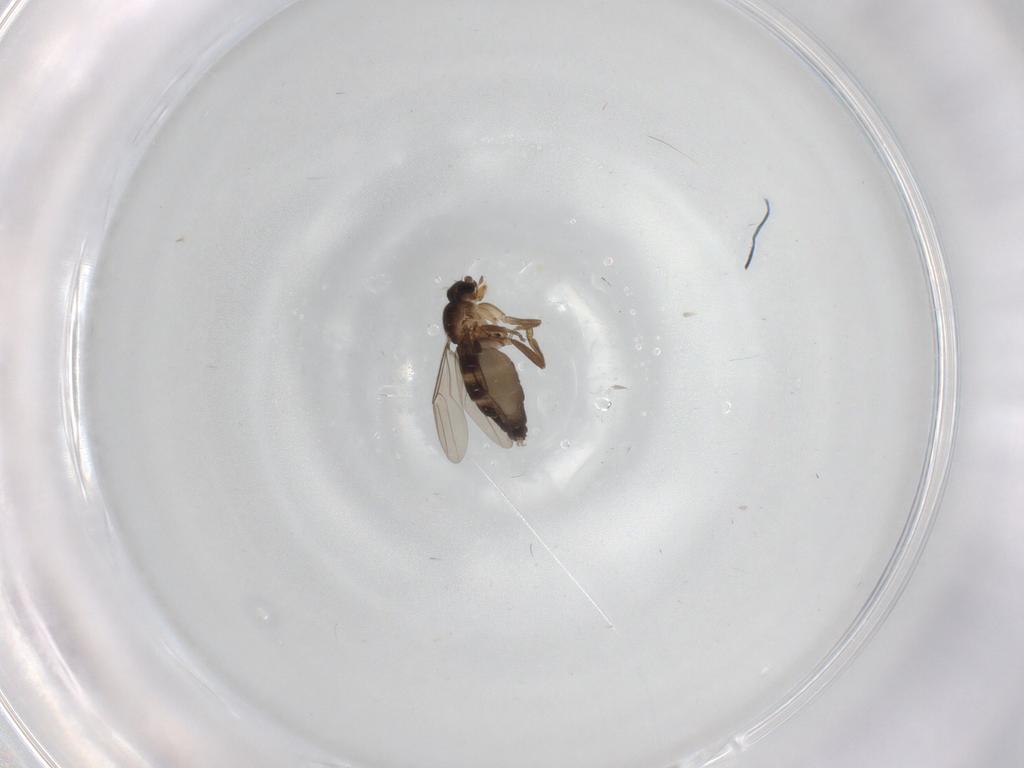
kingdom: Animalia
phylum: Arthropoda
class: Insecta
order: Diptera
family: Phoridae
